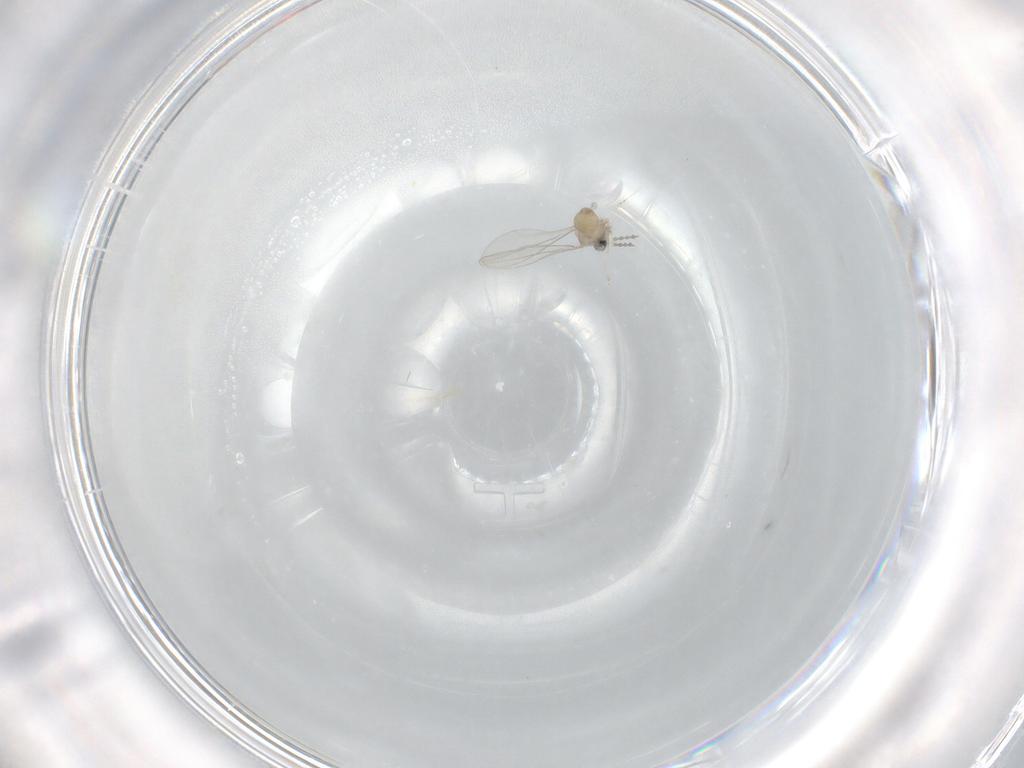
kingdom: Animalia
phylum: Arthropoda
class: Insecta
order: Diptera
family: Cecidomyiidae
